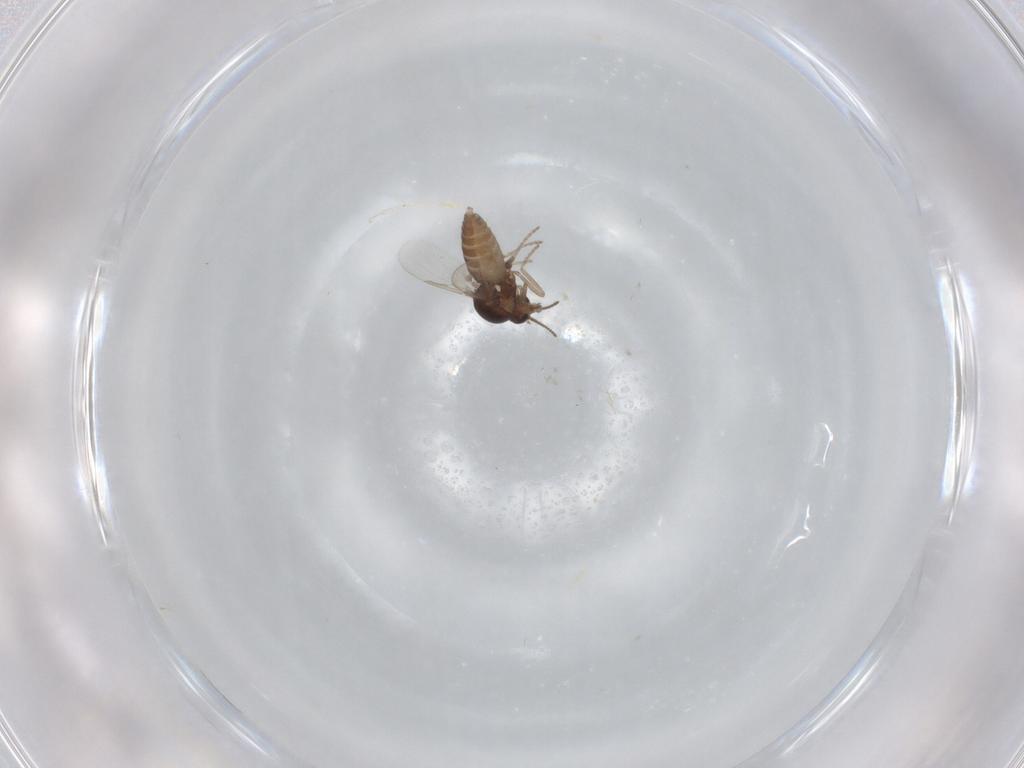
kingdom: Animalia
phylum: Arthropoda
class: Insecta
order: Diptera
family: Ceratopogonidae
